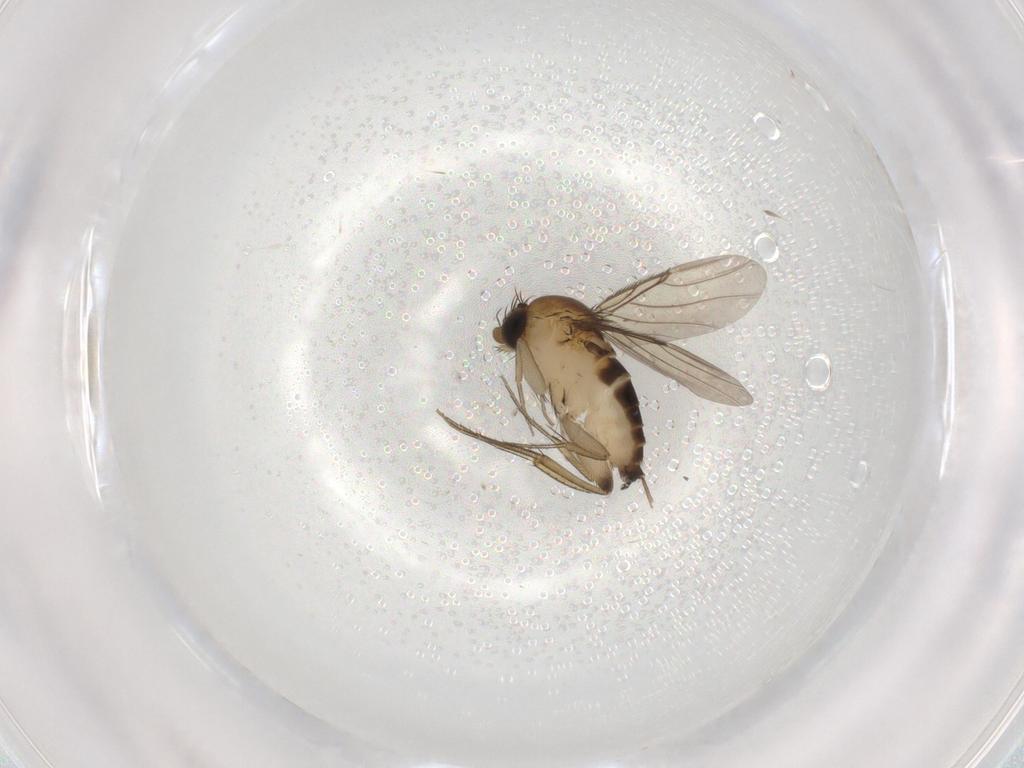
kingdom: Animalia
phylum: Arthropoda
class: Insecta
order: Diptera
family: Phoridae
